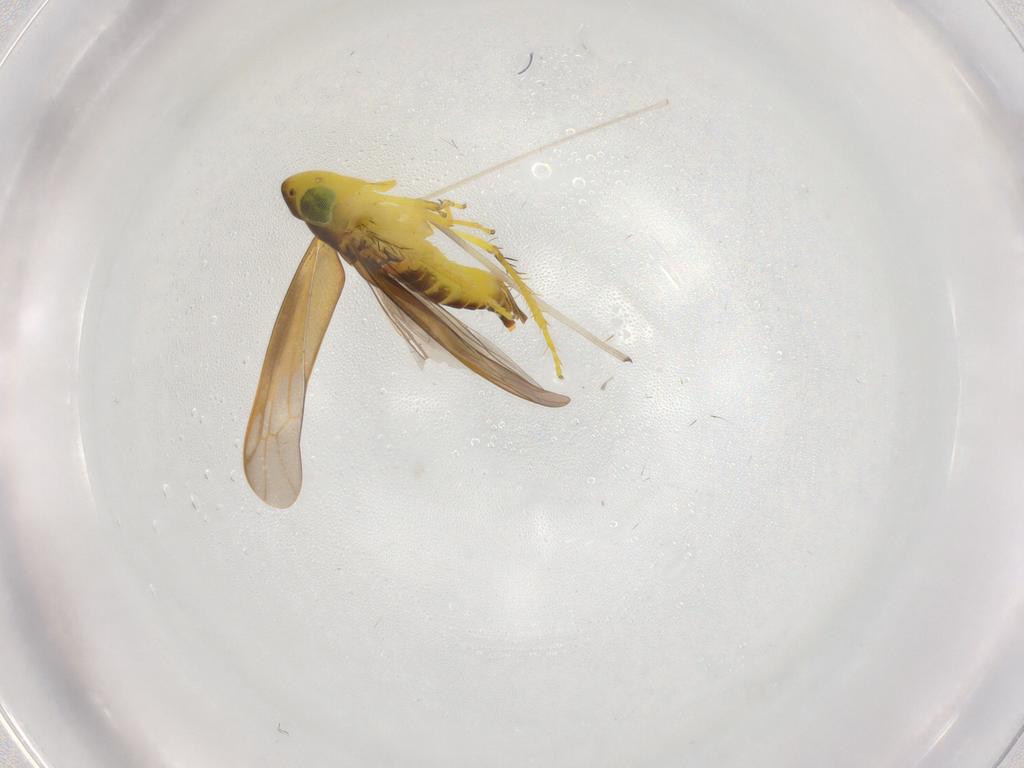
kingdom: Animalia
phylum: Arthropoda
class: Insecta
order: Hemiptera
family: Cicadellidae
